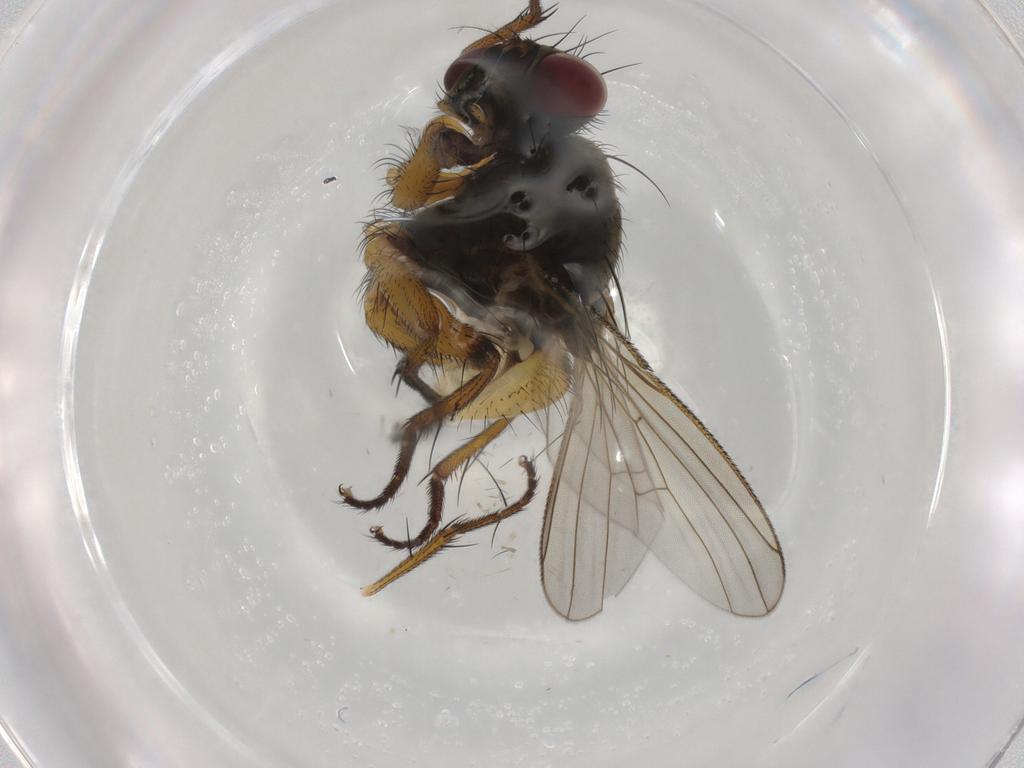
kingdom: Animalia
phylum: Arthropoda
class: Insecta
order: Diptera
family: Muscidae
